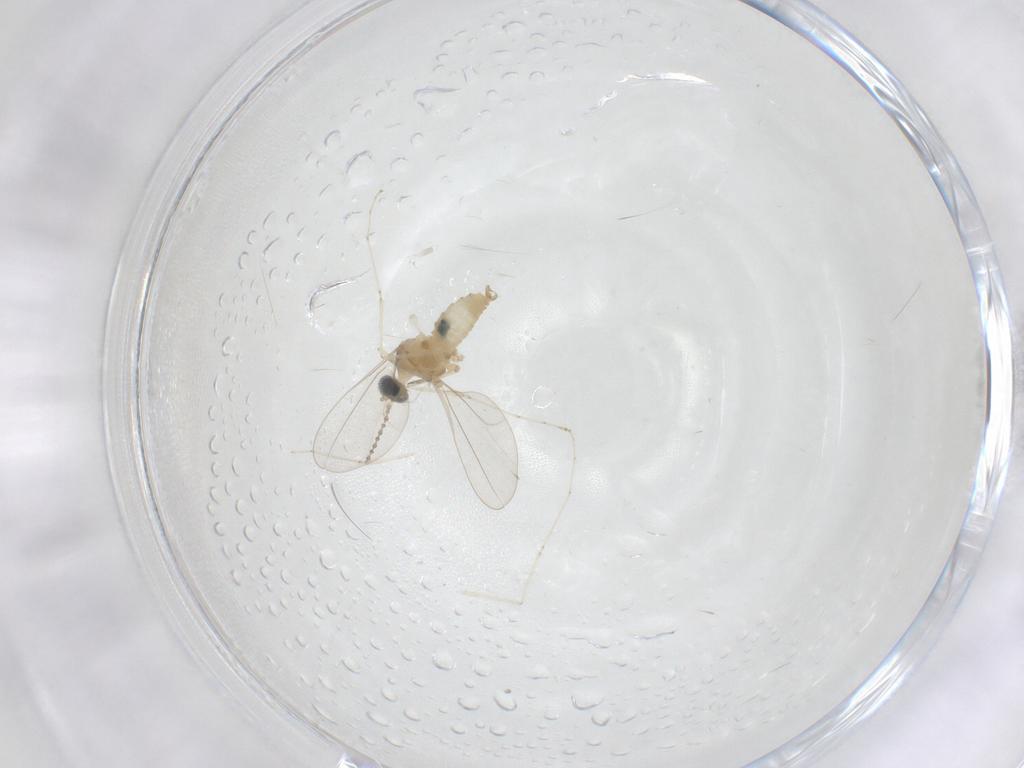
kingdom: Animalia
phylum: Arthropoda
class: Insecta
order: Diptera
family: Cecidomyiidae
